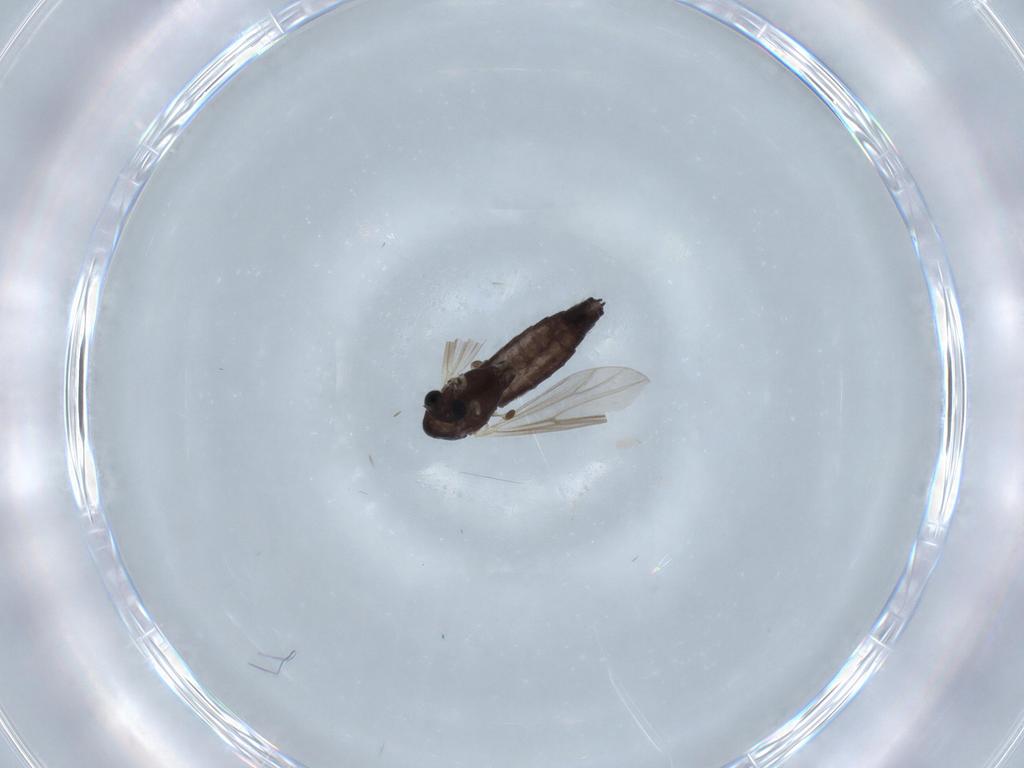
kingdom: Animalia
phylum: Arthropoda
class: Insecta
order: Diptera
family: Chironomidae
